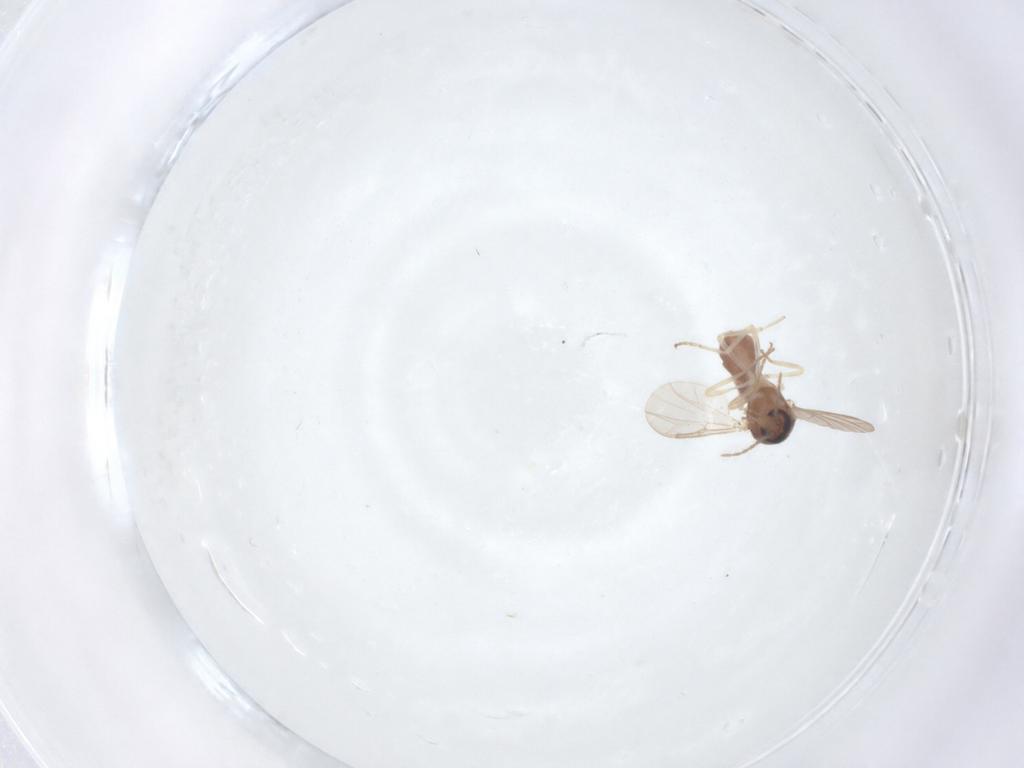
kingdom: Animalia
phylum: Arthropoda
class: Insecta
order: Diptera
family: Ceratopogonidae
